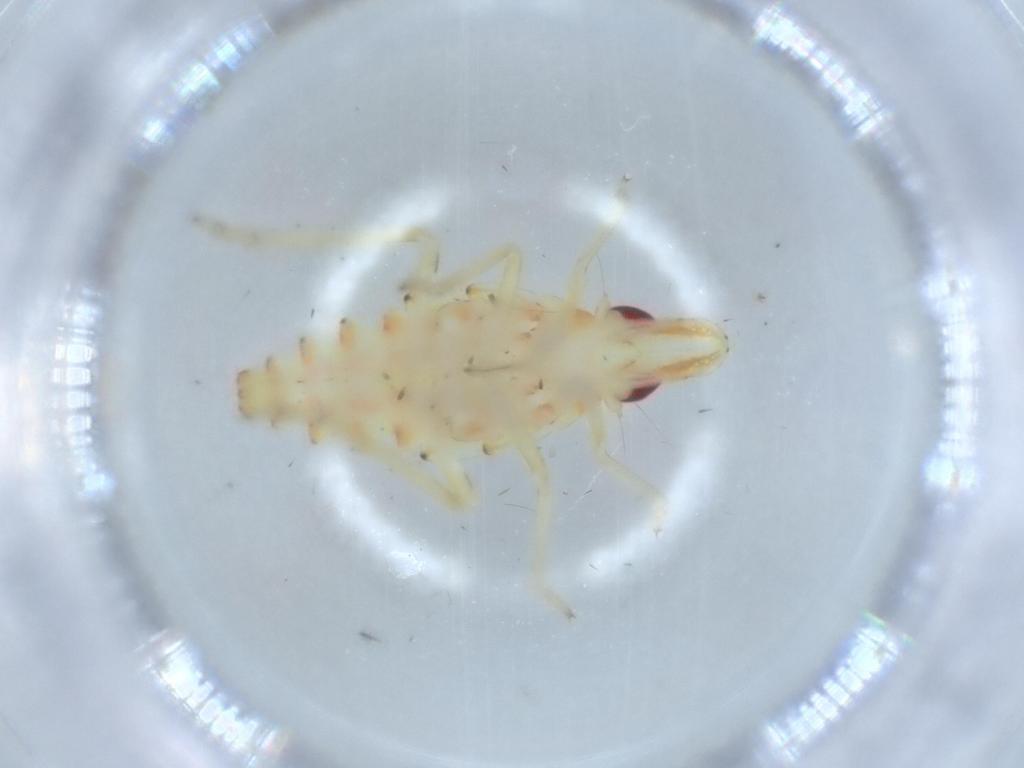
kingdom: Animalia
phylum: Arthropoda
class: Insecta
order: Hemiptera
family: Tropiduchidae
